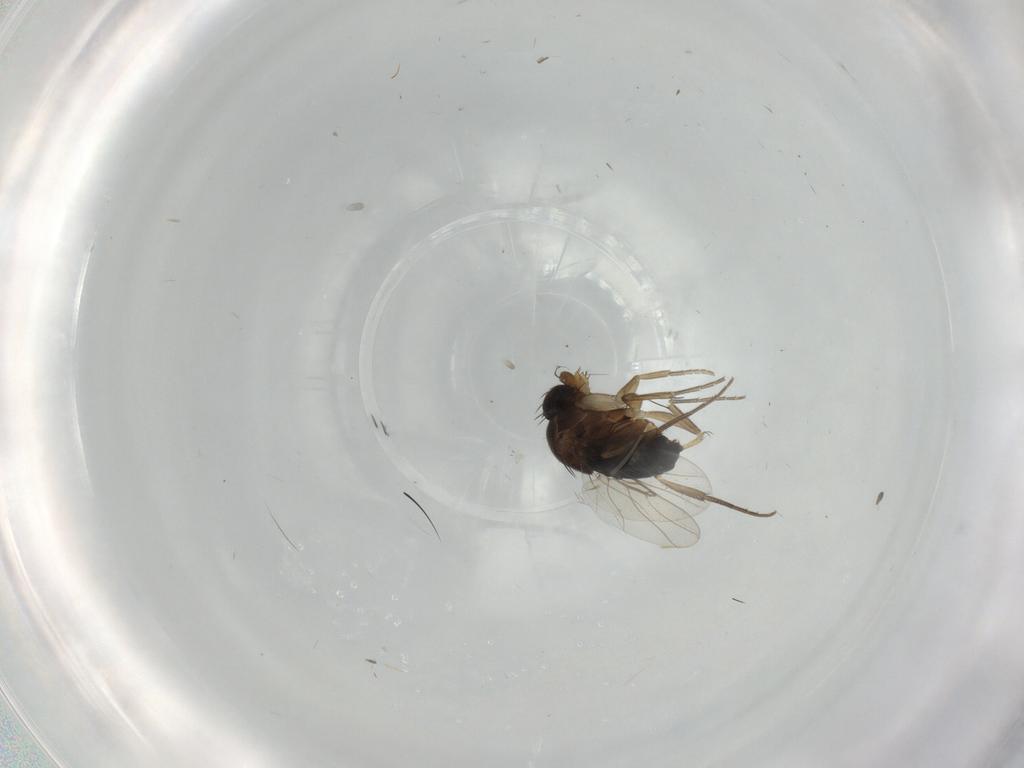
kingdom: Animalia
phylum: Arthropoda
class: Insecta
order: Diptera
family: Phoridae
